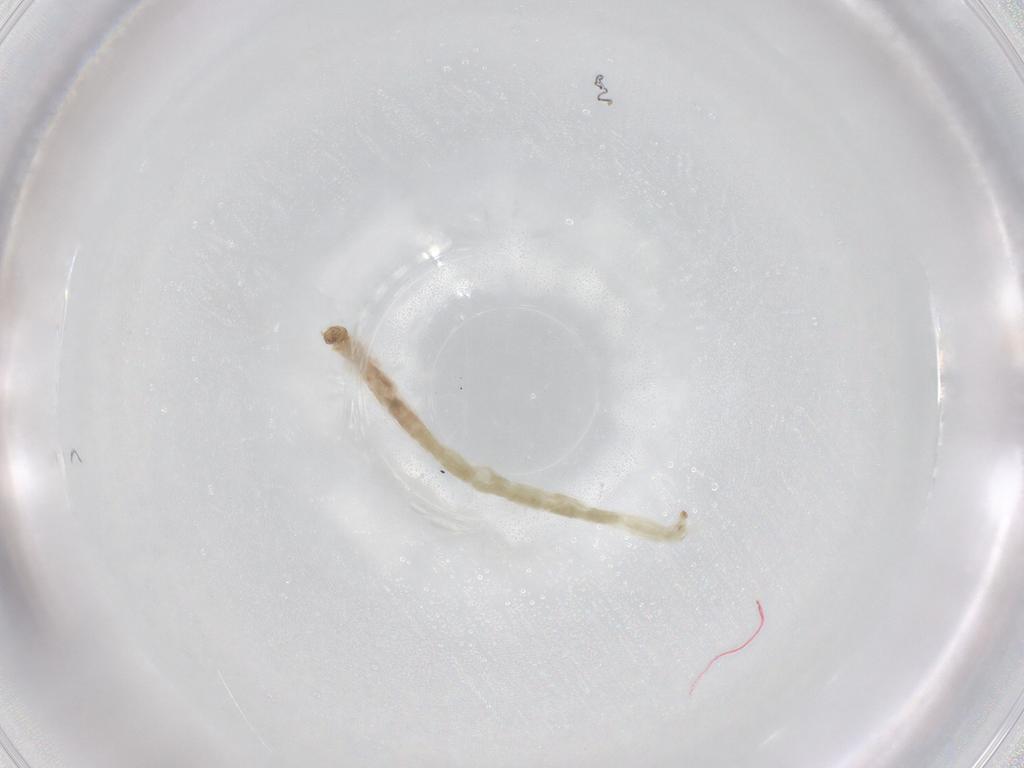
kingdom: Animalia
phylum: Arthropoda
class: Insecta
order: Diptera
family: Chironomidae
